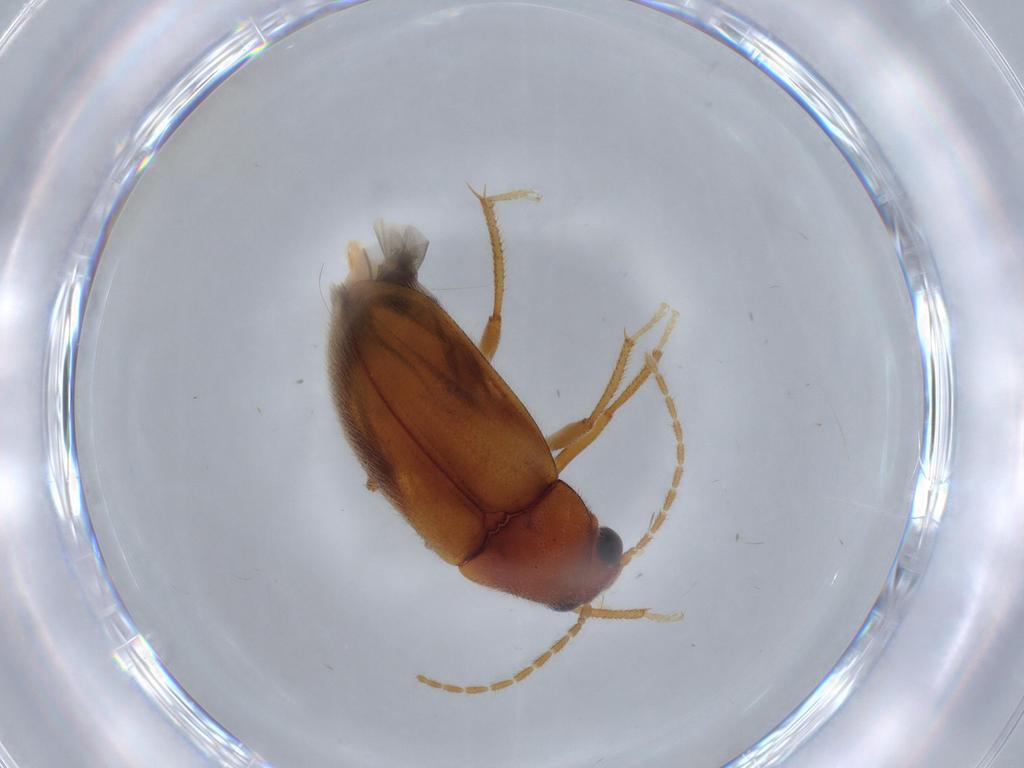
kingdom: Animalia
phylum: Arthropoda
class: Insecta
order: Coleoptera
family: Ptilodactylidae
